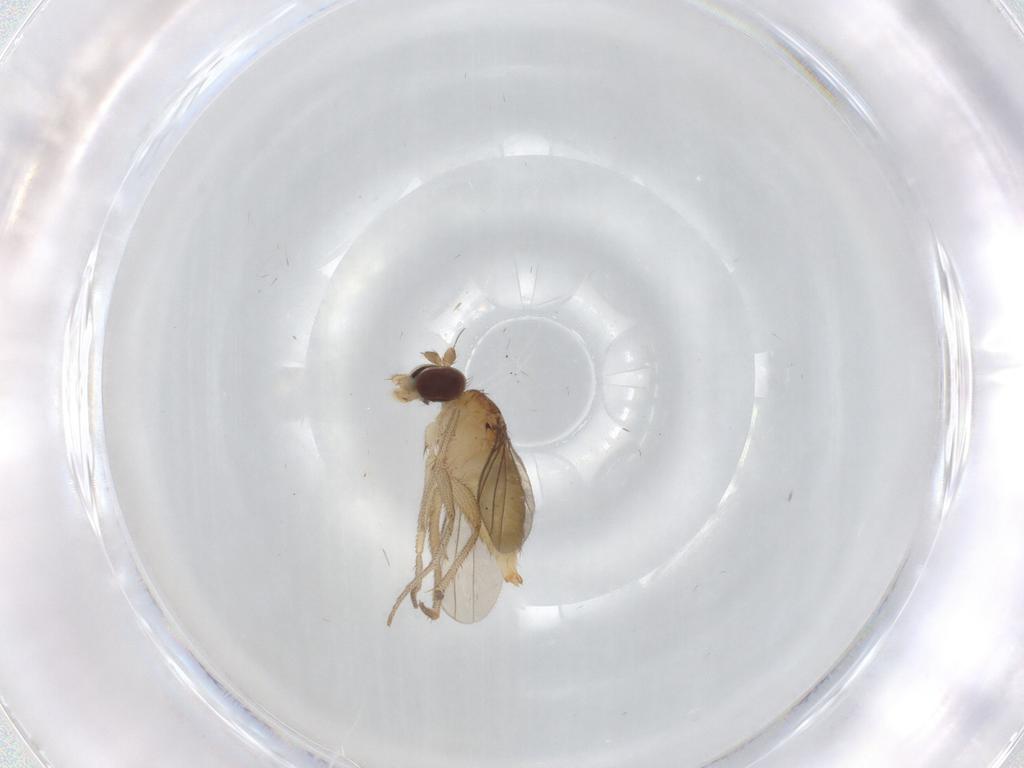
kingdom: Animalia
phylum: Arthropoda
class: Insecta
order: Diptera
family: Dolichopodidae
